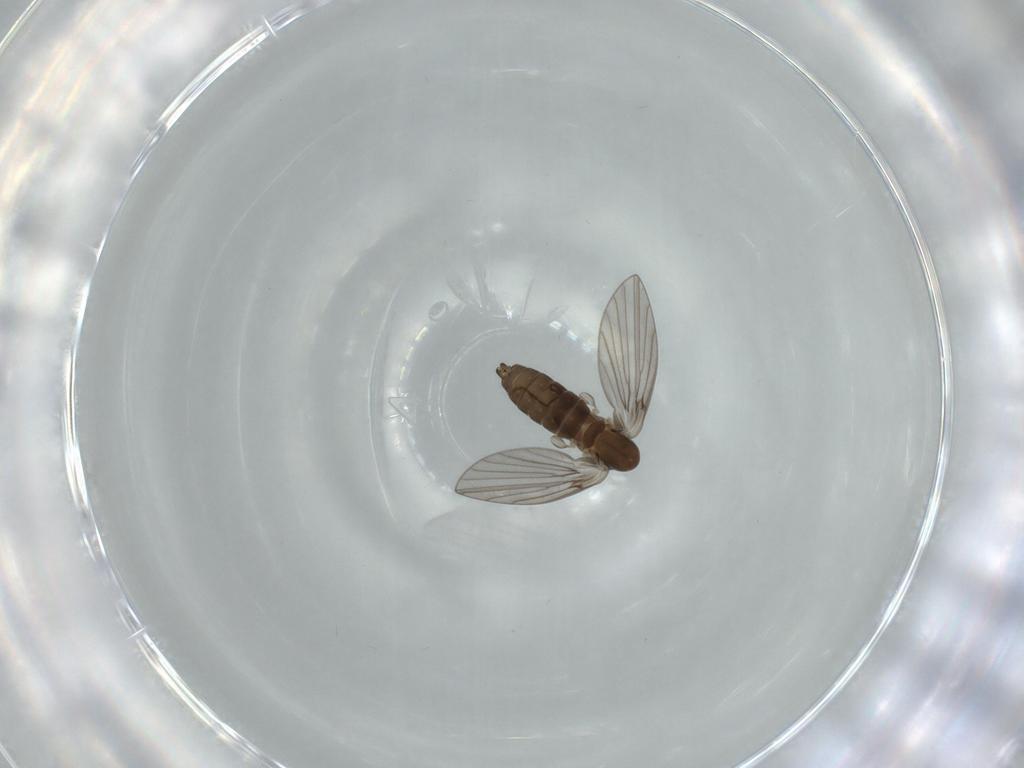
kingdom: Animalia
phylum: Arthropoda
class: Insecta
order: Diptera
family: Psychodidae
